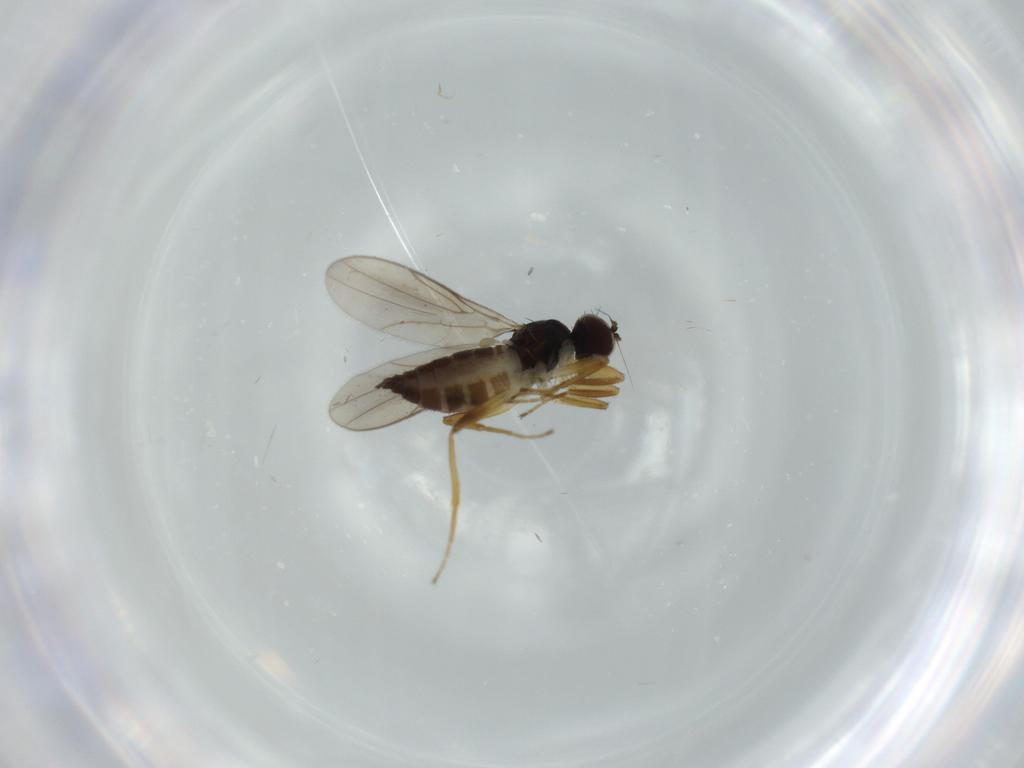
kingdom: Animalia
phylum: Arthropoda
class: Insecta
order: Diptera
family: Hybotidae
